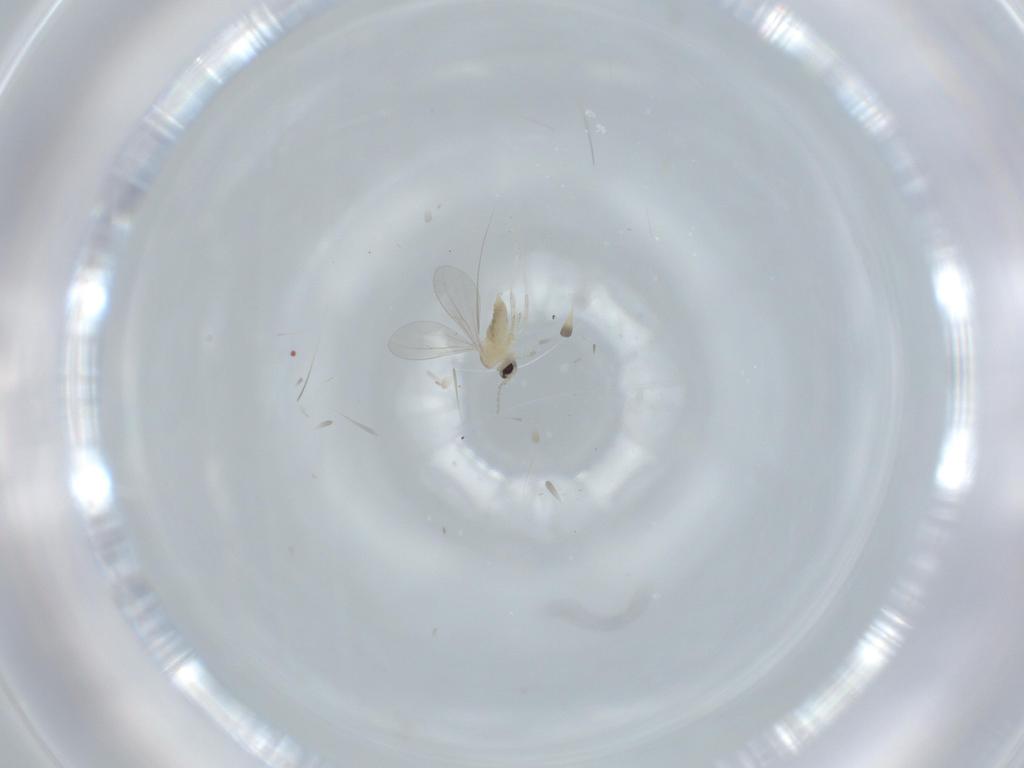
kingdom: Animalia
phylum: Arthropoda
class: Insecta
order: Diptera
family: Cecidomyiidae
